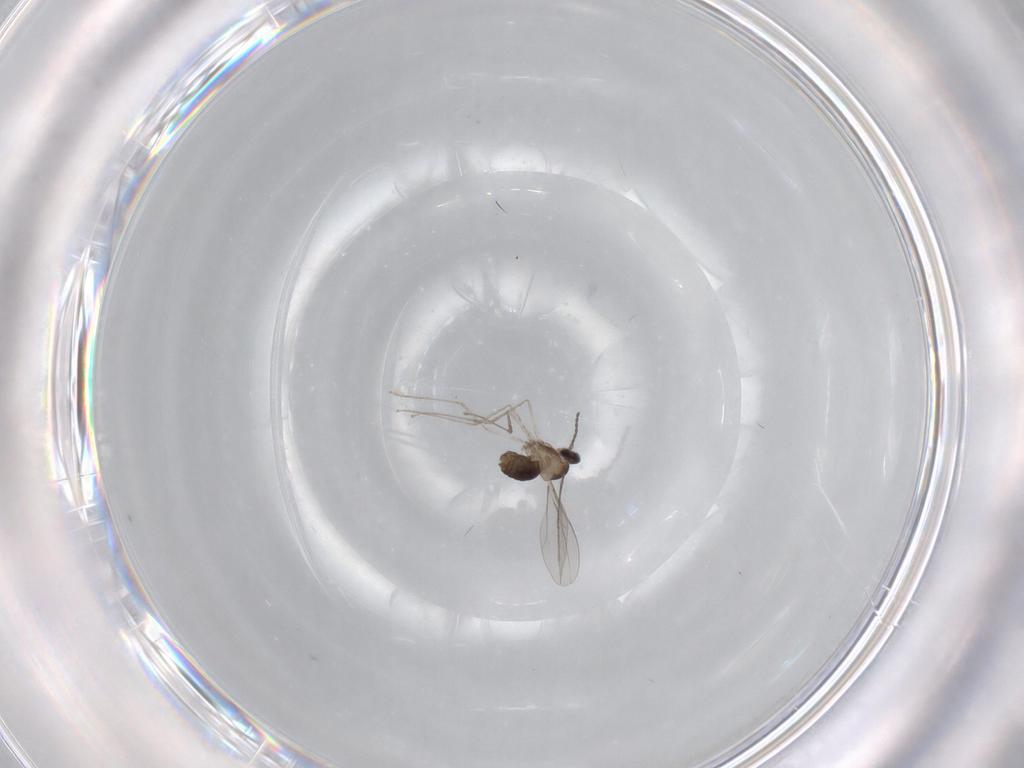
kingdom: Animalia
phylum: Arthropoda
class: Insecta
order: Diptera
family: Cecidomyiidae
